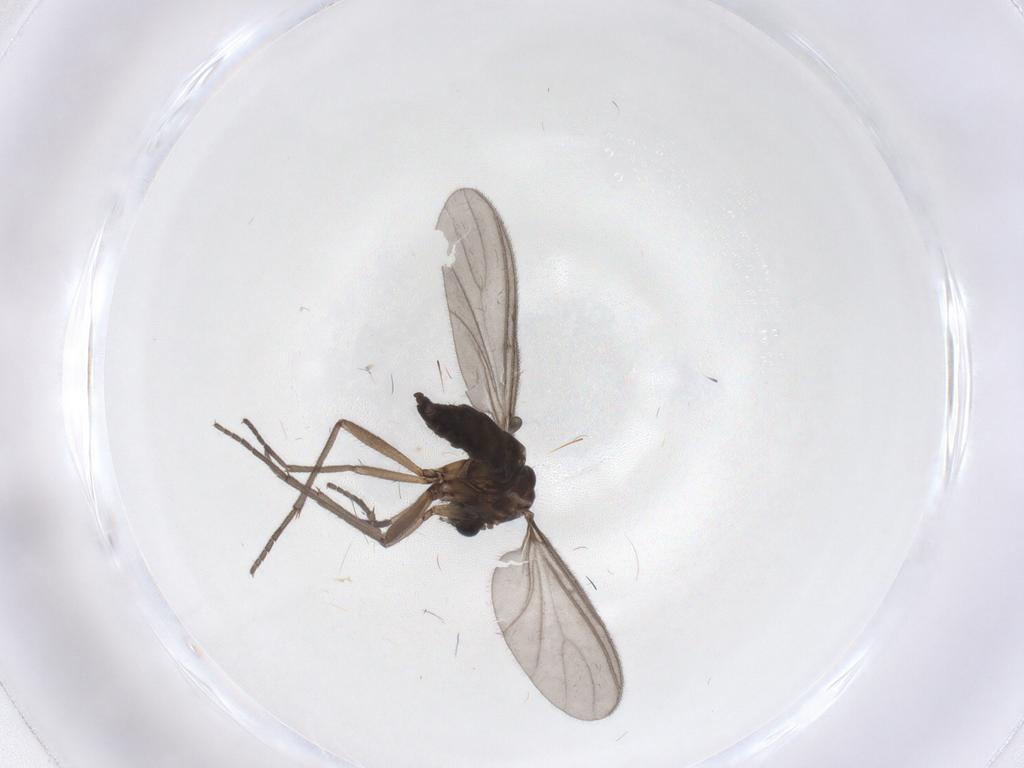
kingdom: Animalia
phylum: Arthropoda
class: Insecta
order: Diptera
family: Sciaridae
